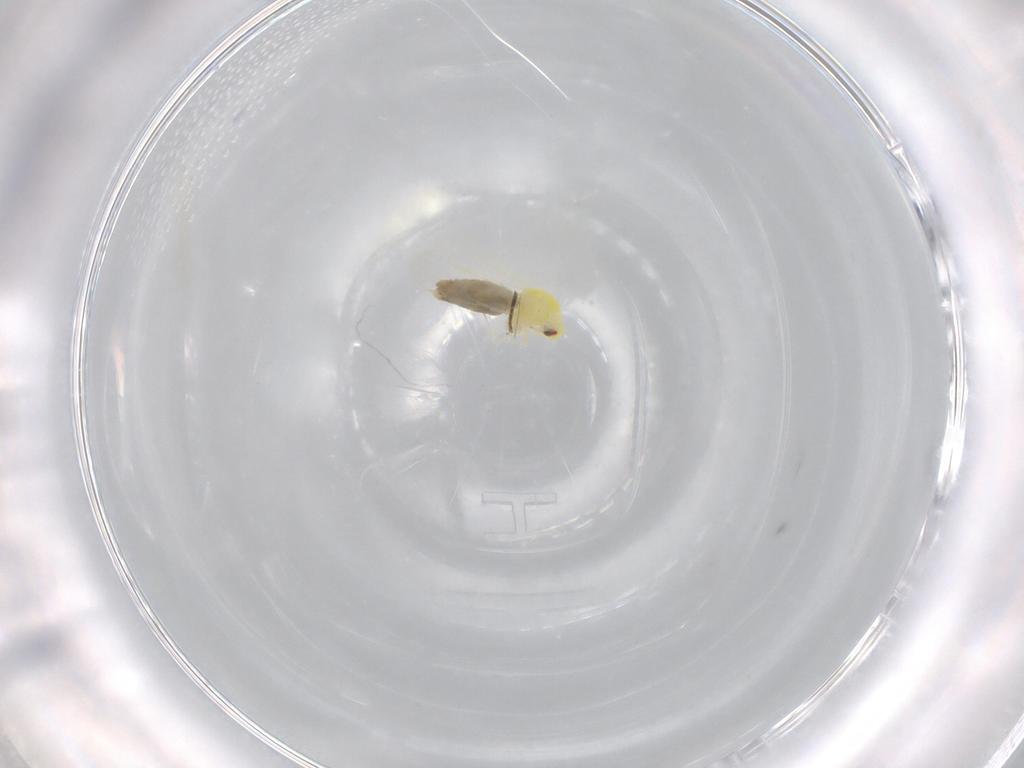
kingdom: Animalia
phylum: Arthropoda
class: Insecta
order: Hemiptera
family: Aleyrodidae
